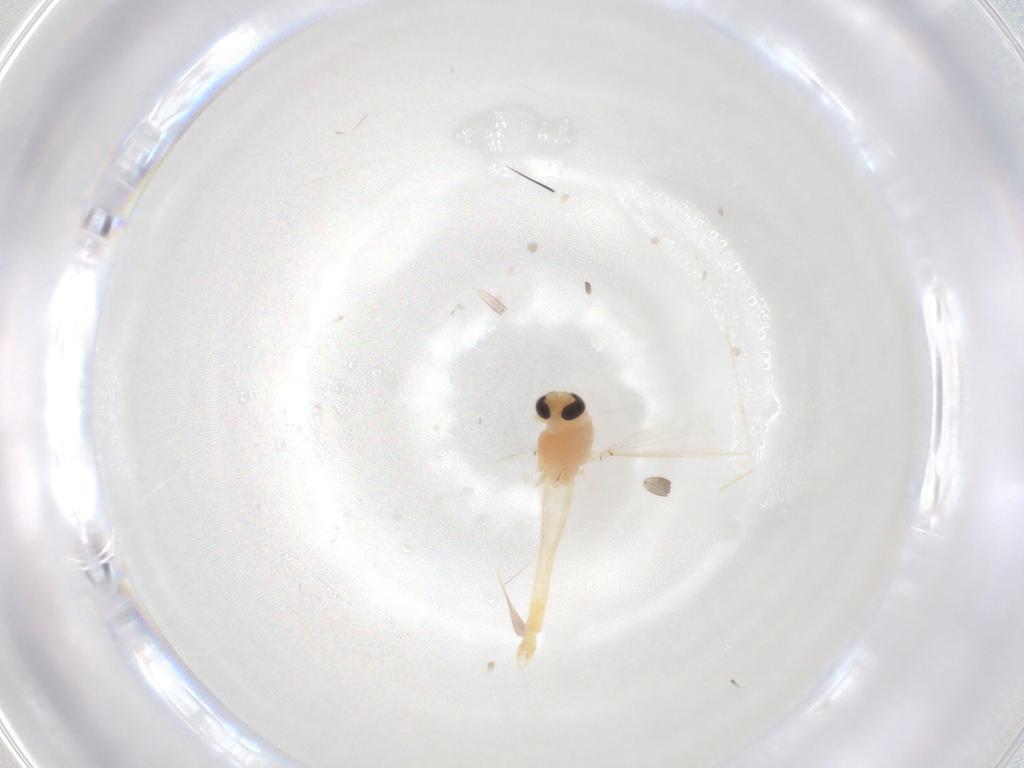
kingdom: Animalia
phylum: Arthropoda
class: Insecta
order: Diptera
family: Chironomidae
